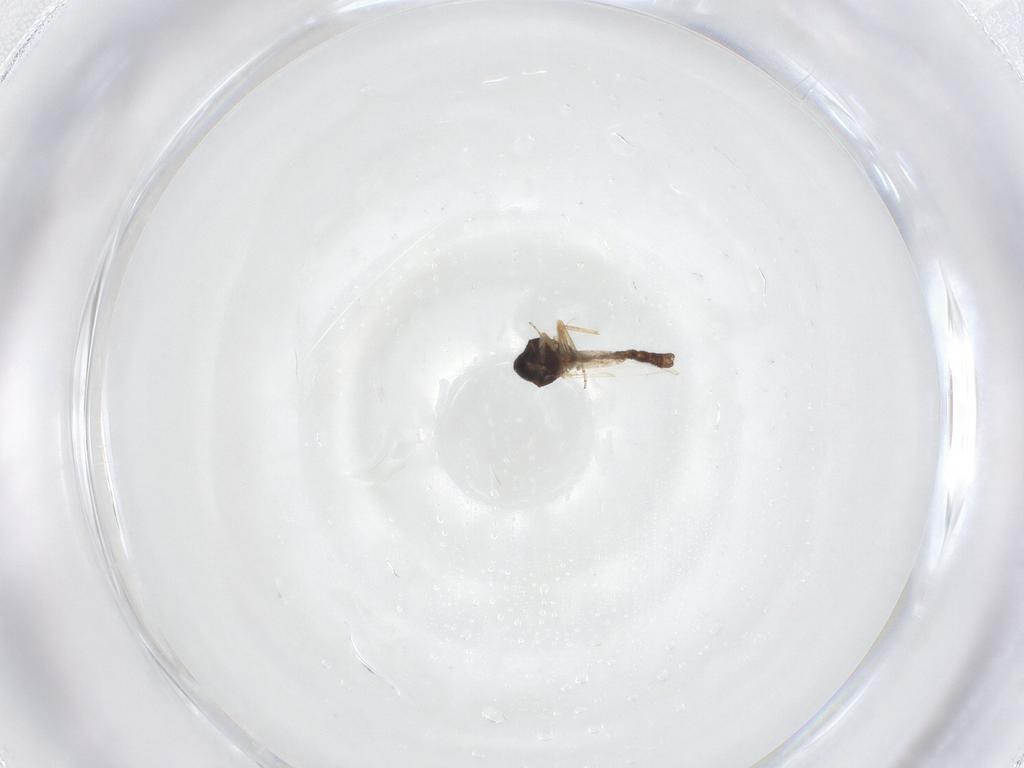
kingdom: Animalia
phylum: Arthropoda
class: Insecta
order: Diptera
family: Ceratopogonidae
